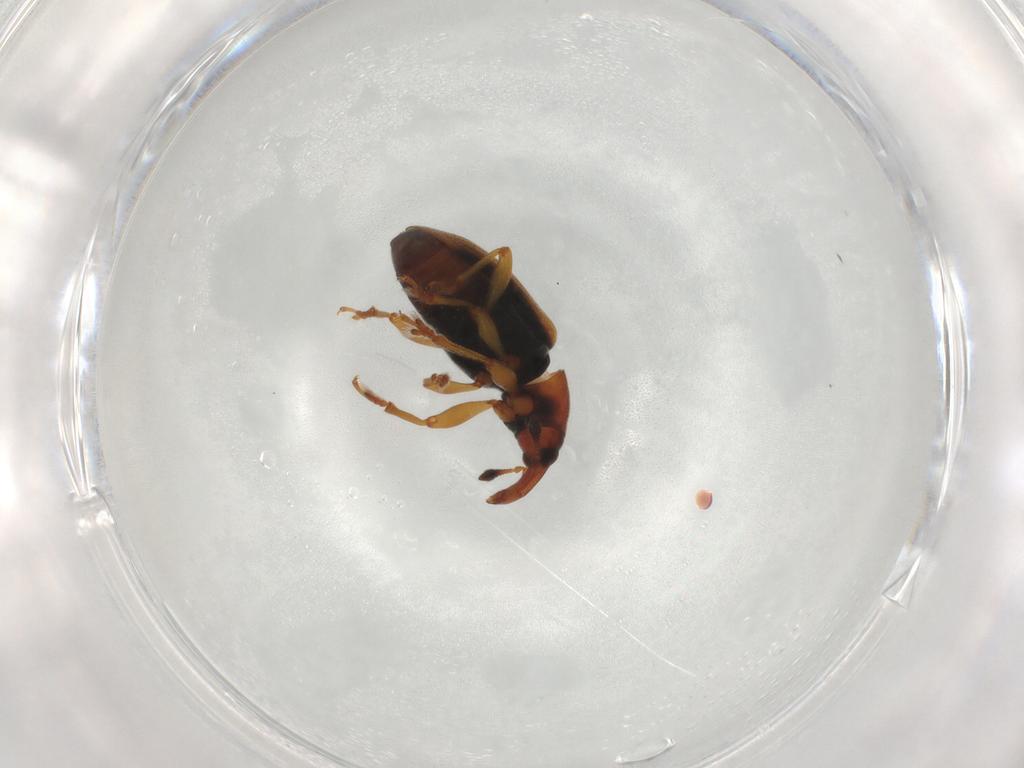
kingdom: Animalia
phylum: Arthropoda
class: Insecta
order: Coleoptera
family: Curculionidae
